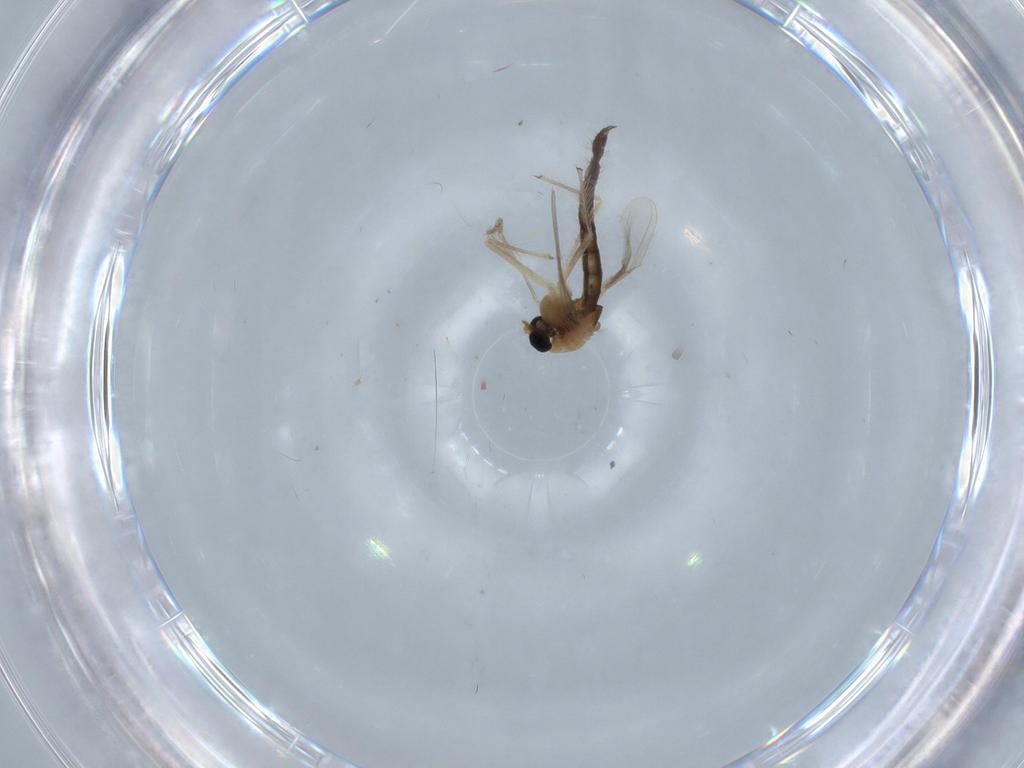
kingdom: Animalia
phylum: Arthropoda
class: Insecta
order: Diptera
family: Chironomidae
